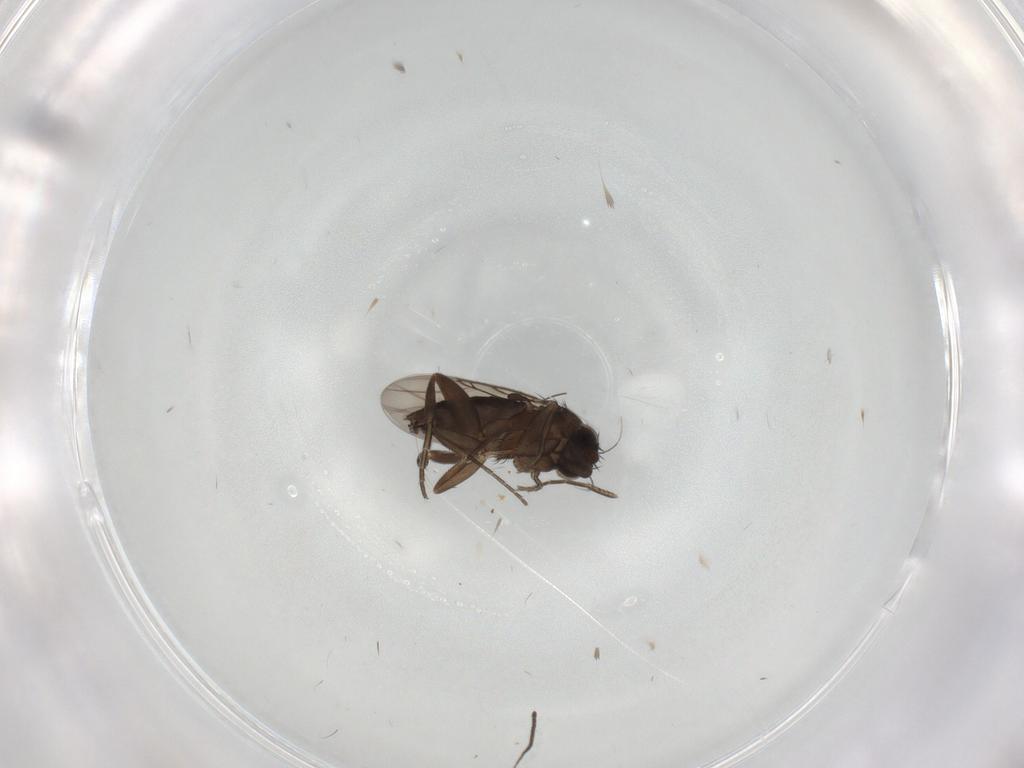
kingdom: Animalia
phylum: Arthropoda
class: Insecta
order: Diptera
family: Phoridae
